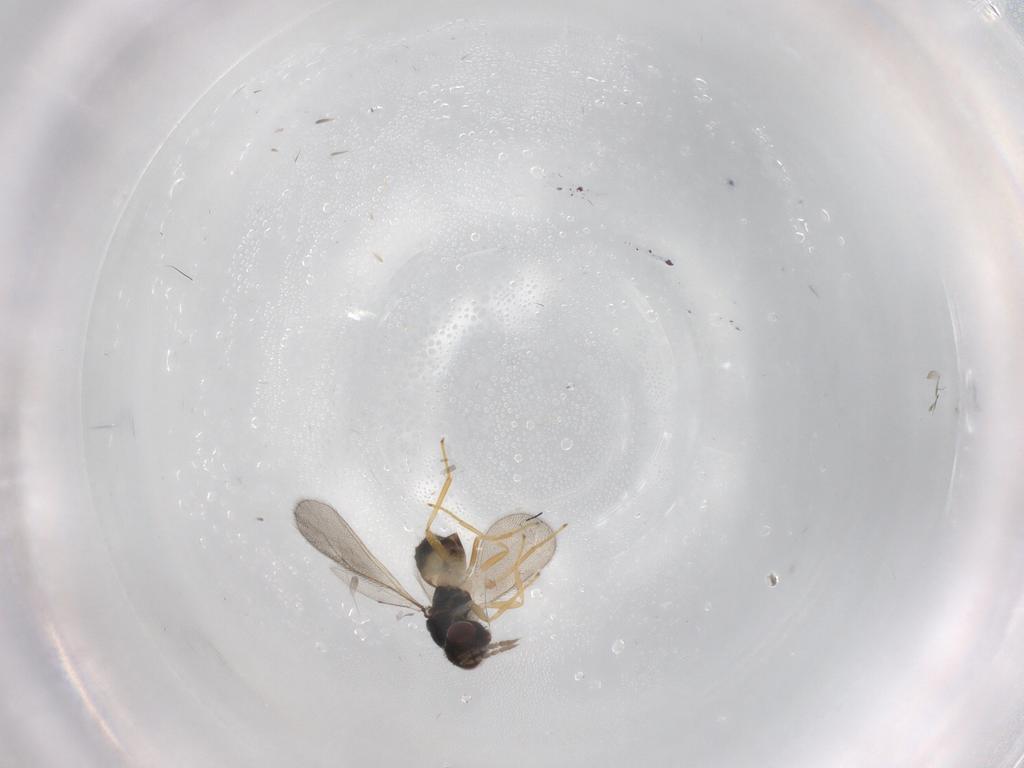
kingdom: Animalia
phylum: Arthropoda
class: Insecta
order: Hymenoptera
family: Eulophidae
